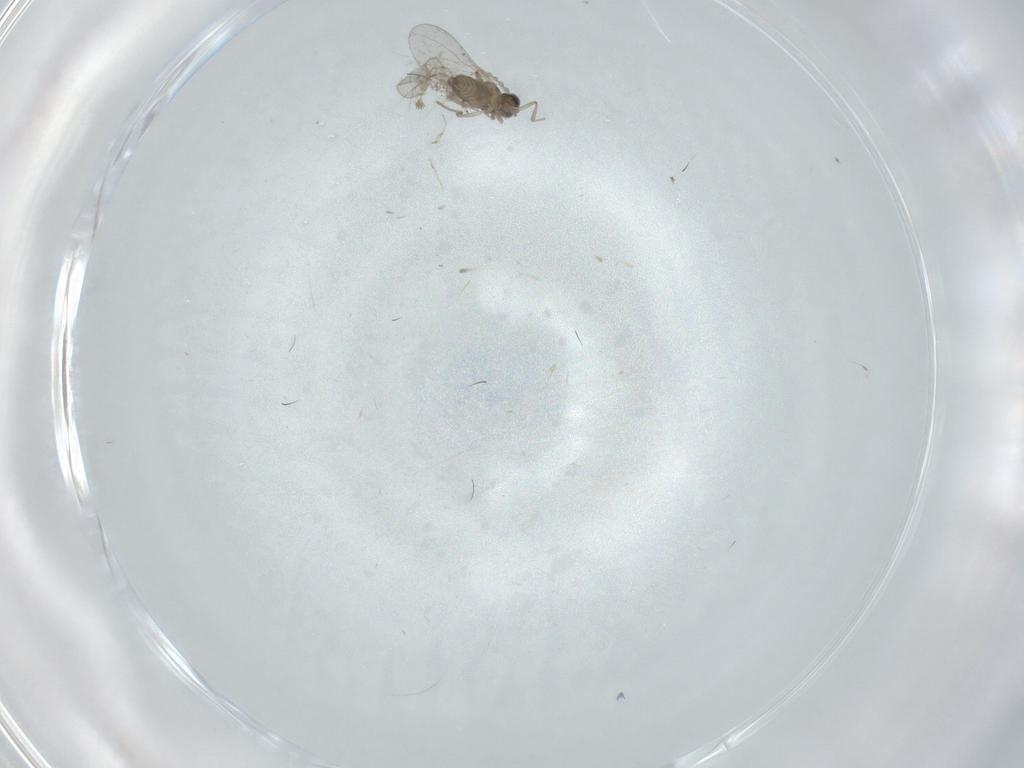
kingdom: Animalia
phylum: Arthropoda
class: Insecta
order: Diptera
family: Cecidomyiidae
